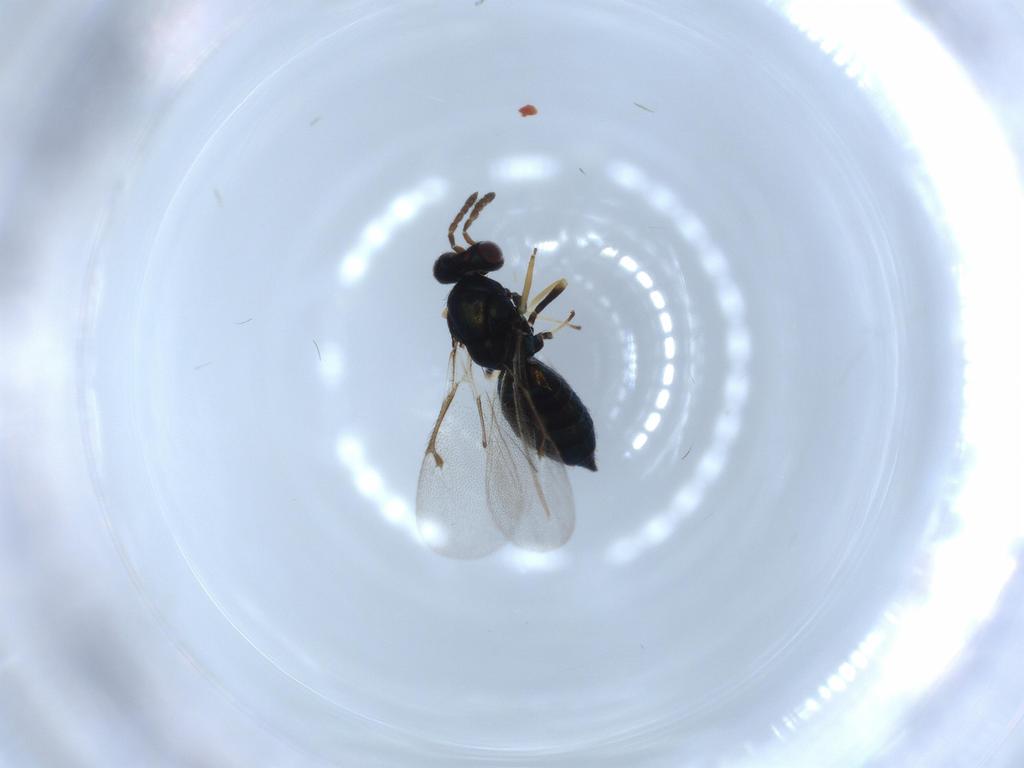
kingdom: Animalia
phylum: Arthropoda
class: Insecta
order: Hymenoptera
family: Eulophidae
